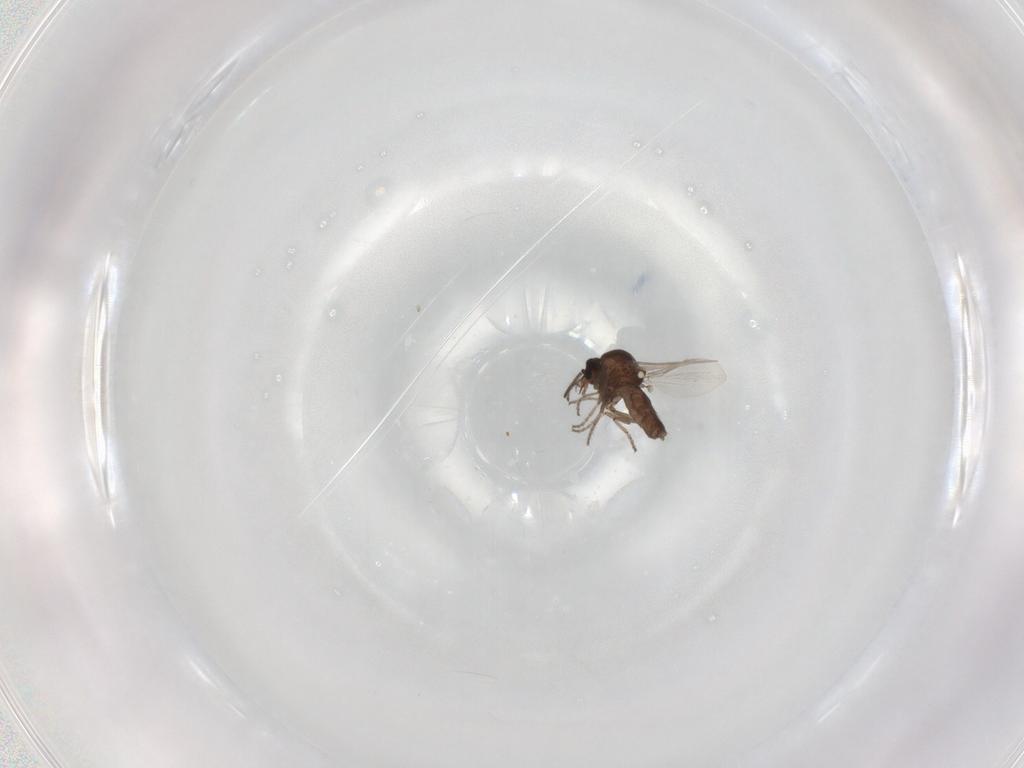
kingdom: Animalia
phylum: Arthropoda
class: Insecta
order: Diptera
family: Ceratopogonidae
